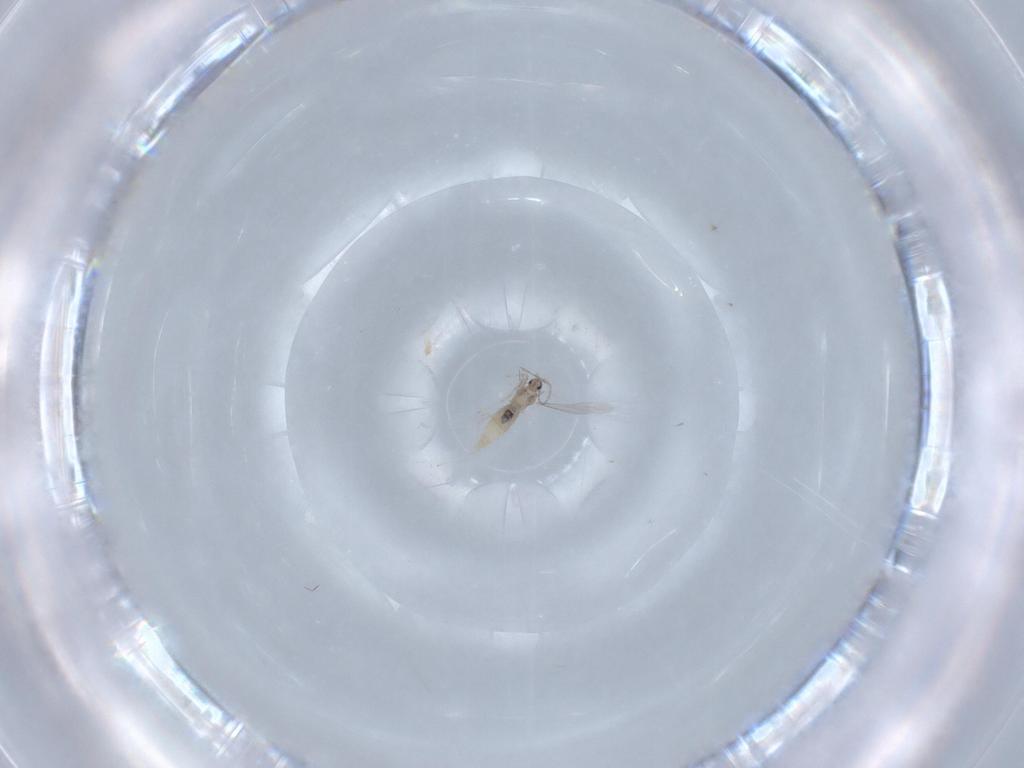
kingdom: Animalia
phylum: Arthropoda
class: Insecta
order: Diptera
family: Cecidomyiidae
